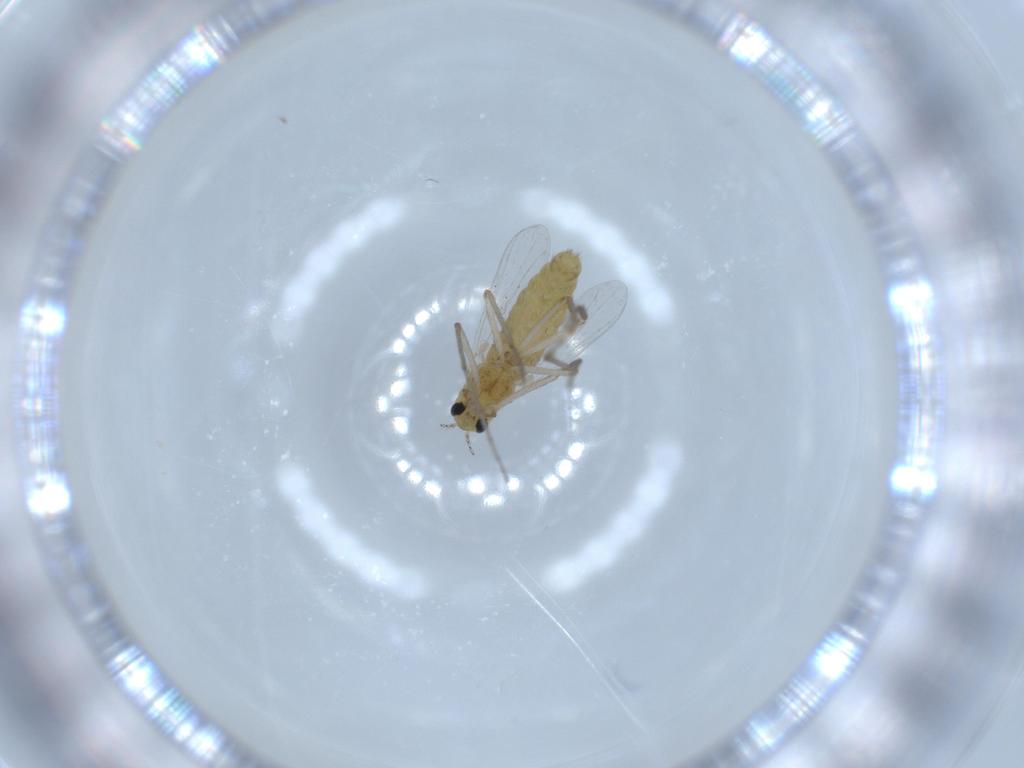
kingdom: Animalia
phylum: Arthropoda
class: Insecta
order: Diptera
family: Chironomidae
